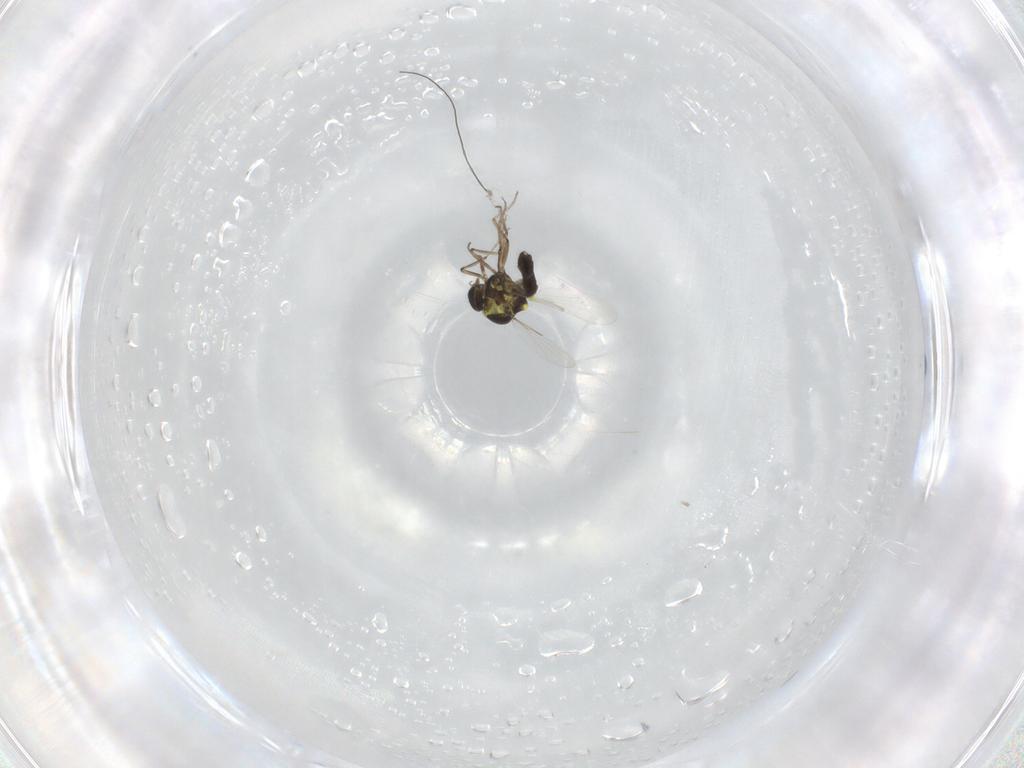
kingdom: Animalia
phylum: Arthropoda
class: Insecta
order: Diptera
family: Ceratopogonidae
